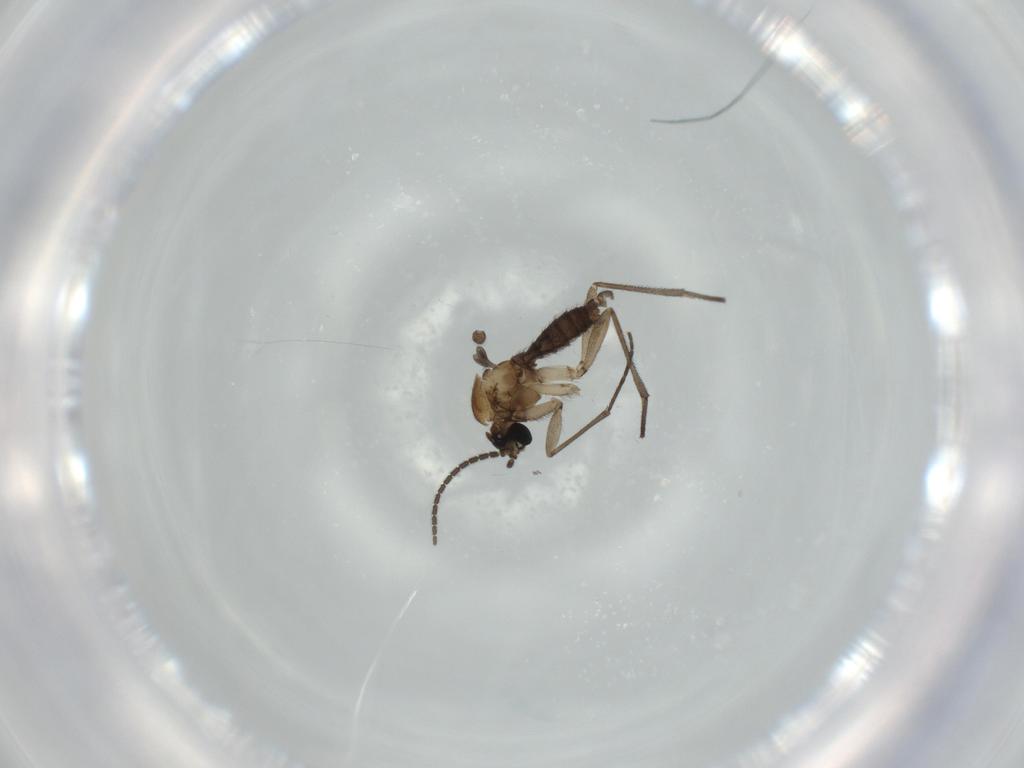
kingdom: Animalia
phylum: Arthropoda
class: Insecta
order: Diptera
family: Sciaridae
